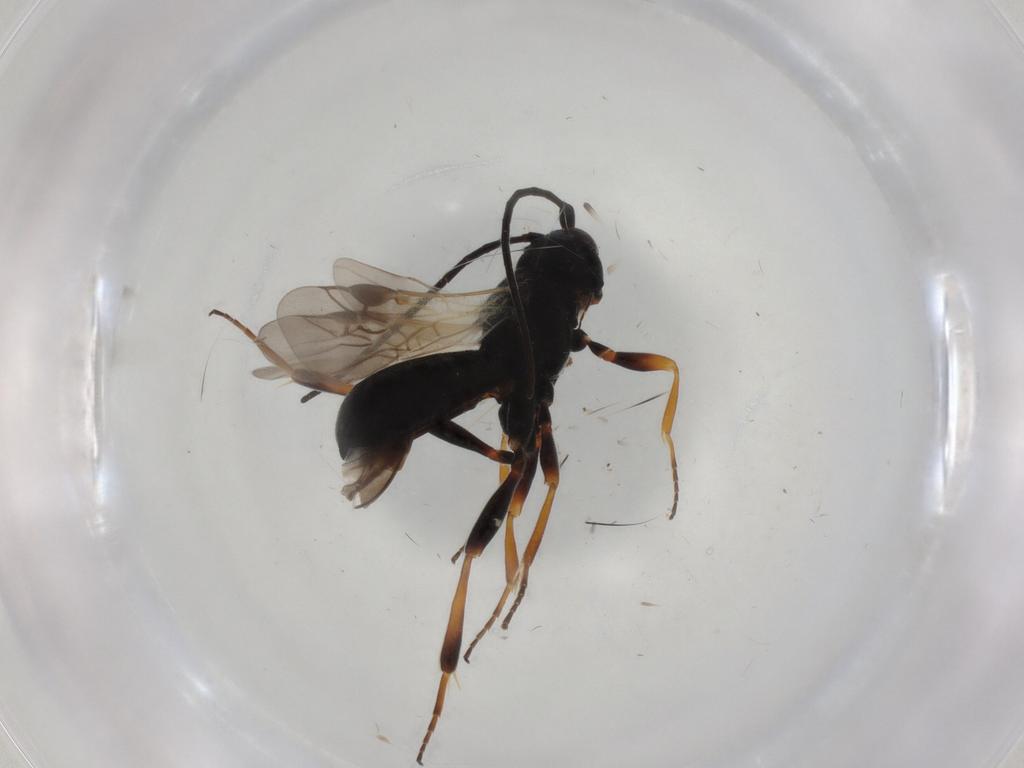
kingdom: Animalia
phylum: Arthropoda
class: Insecta
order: Hymenoptera
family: Braconidae
